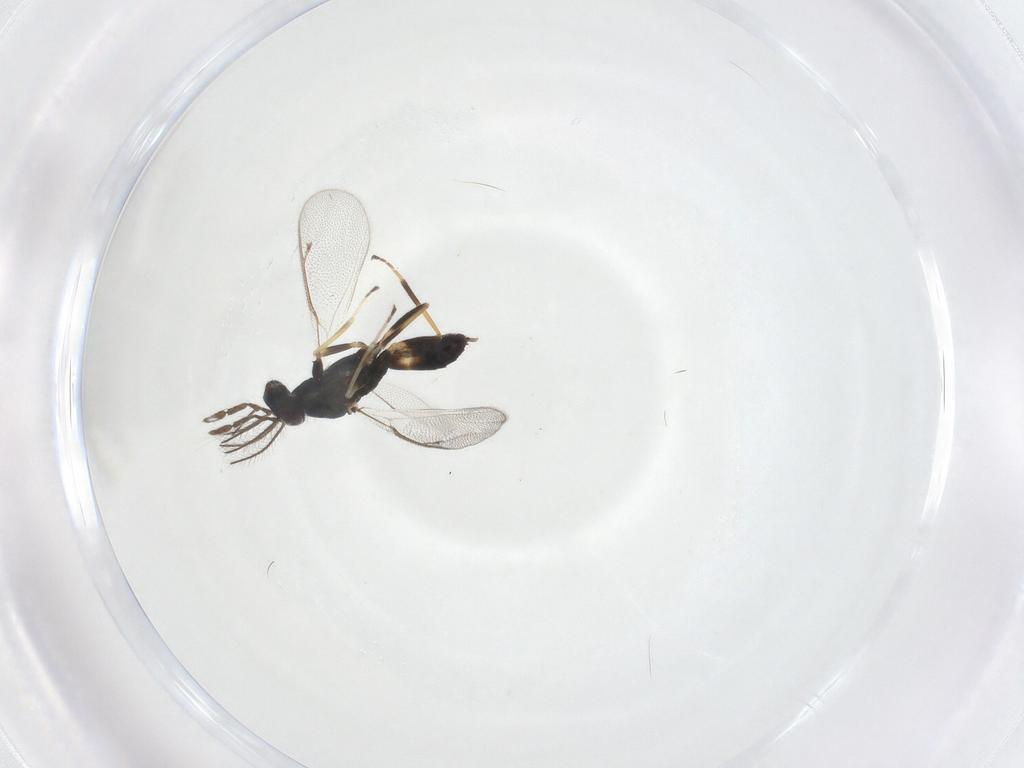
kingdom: Animalia
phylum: Arthropoda
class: Insecta
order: Hymenoptera
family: Eulophidae
